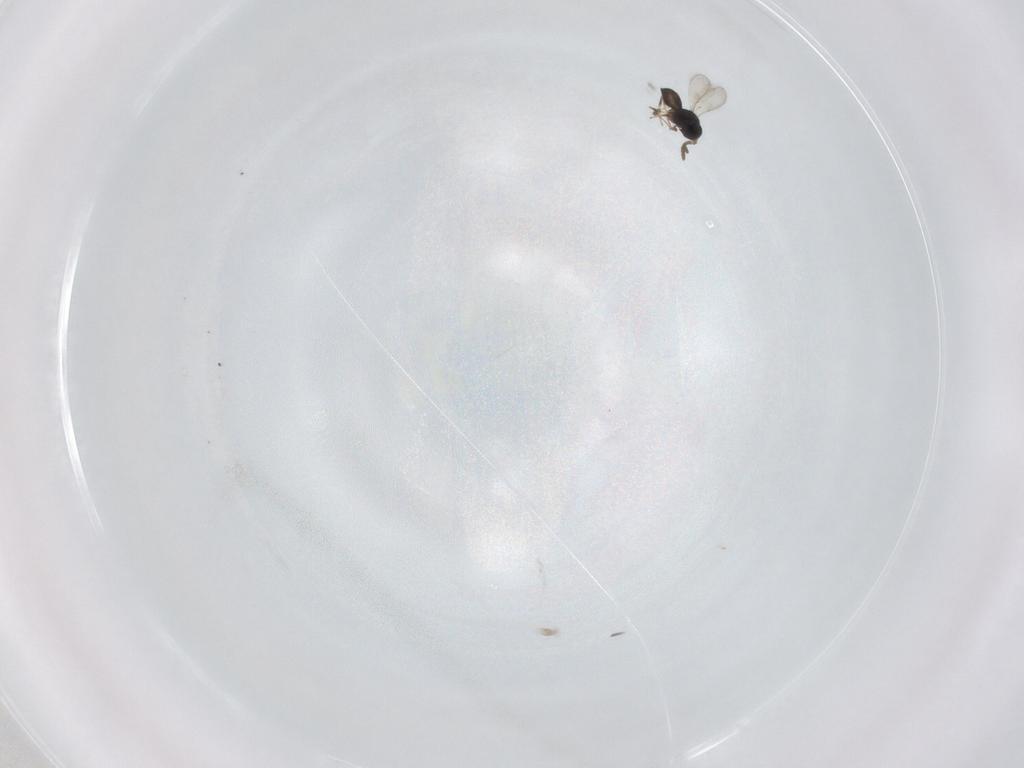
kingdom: Animalia
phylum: Arthropoda
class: Insecta
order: Hymenoptera
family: Scelionidae
